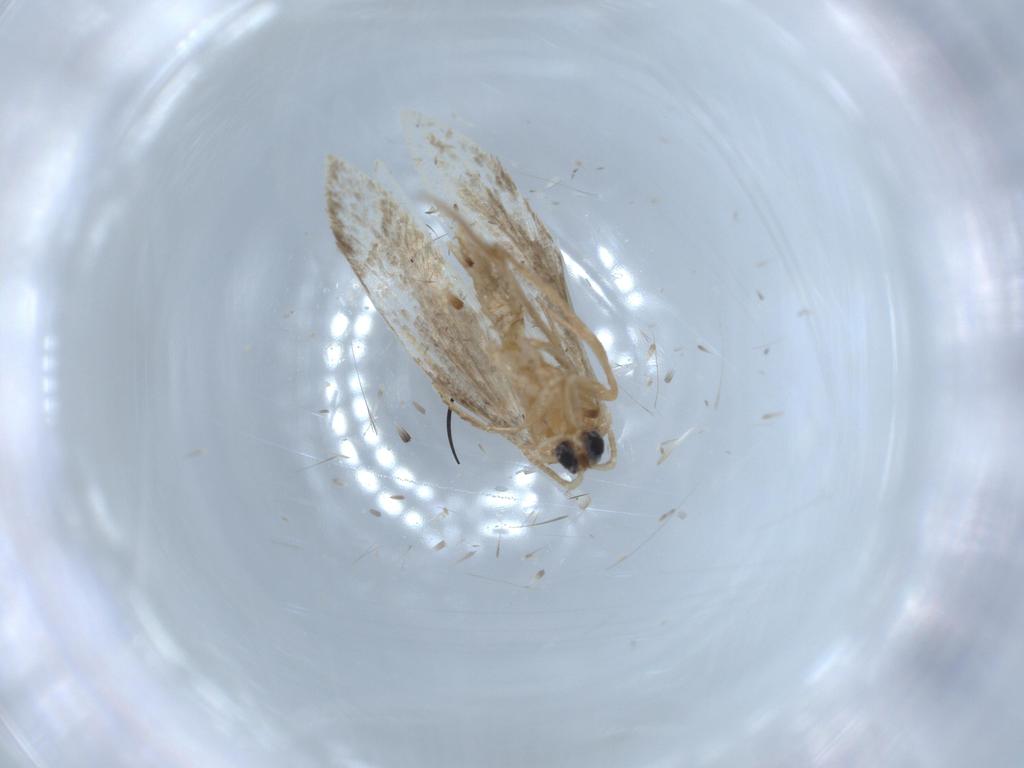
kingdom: Animalia
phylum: Arthropoda
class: Insecta
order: Lepidoptera
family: Tineidae
